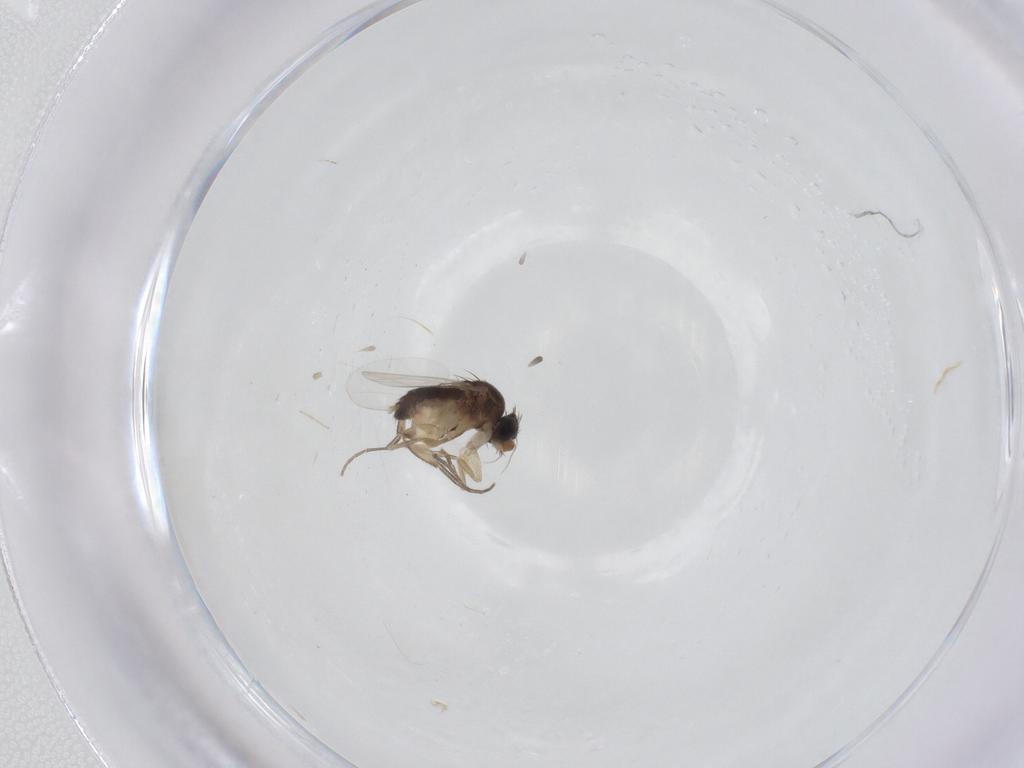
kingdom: Animalia
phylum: Arthropoda
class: Insecta
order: Diptera
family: Phoridae
